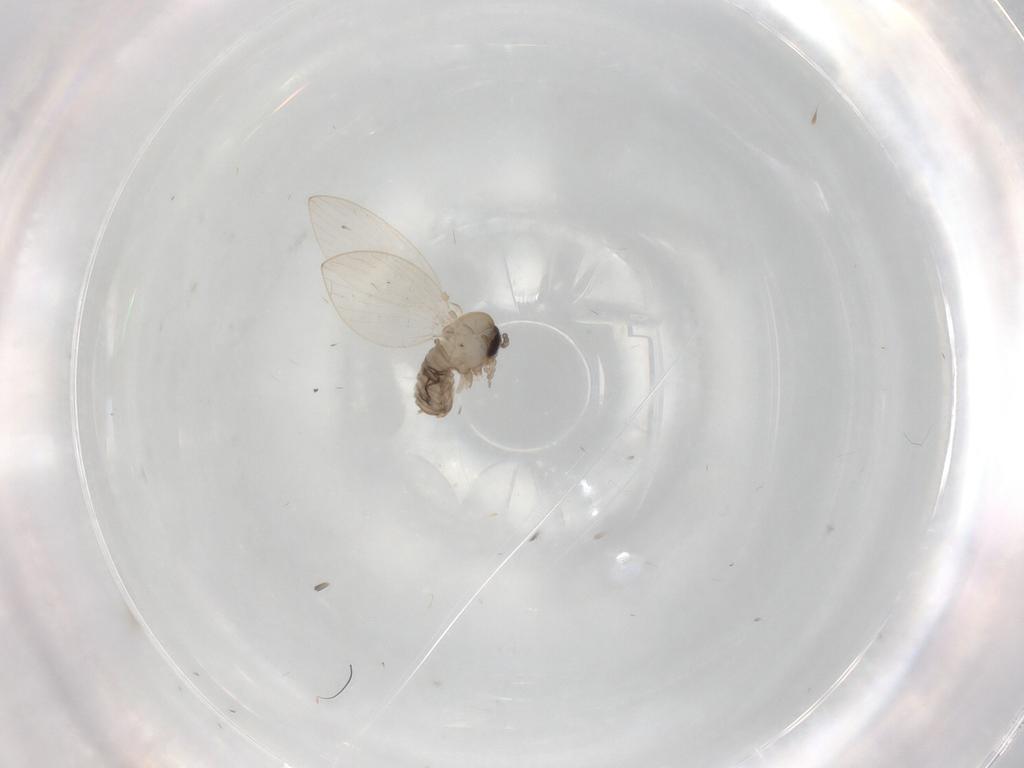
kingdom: Animalia
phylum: Arthropoda
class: Insecta
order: Diptera
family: Psychodidae
